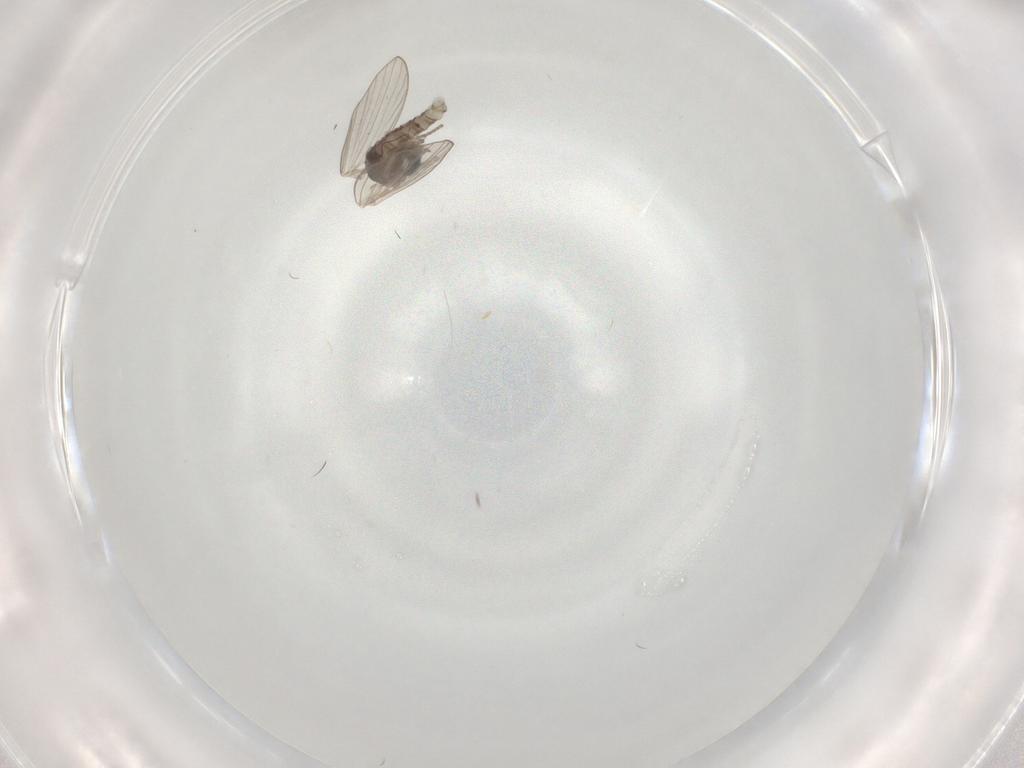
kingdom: Animalia
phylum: Arthropoda
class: Insecta
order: Diptera
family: Psychodidae
